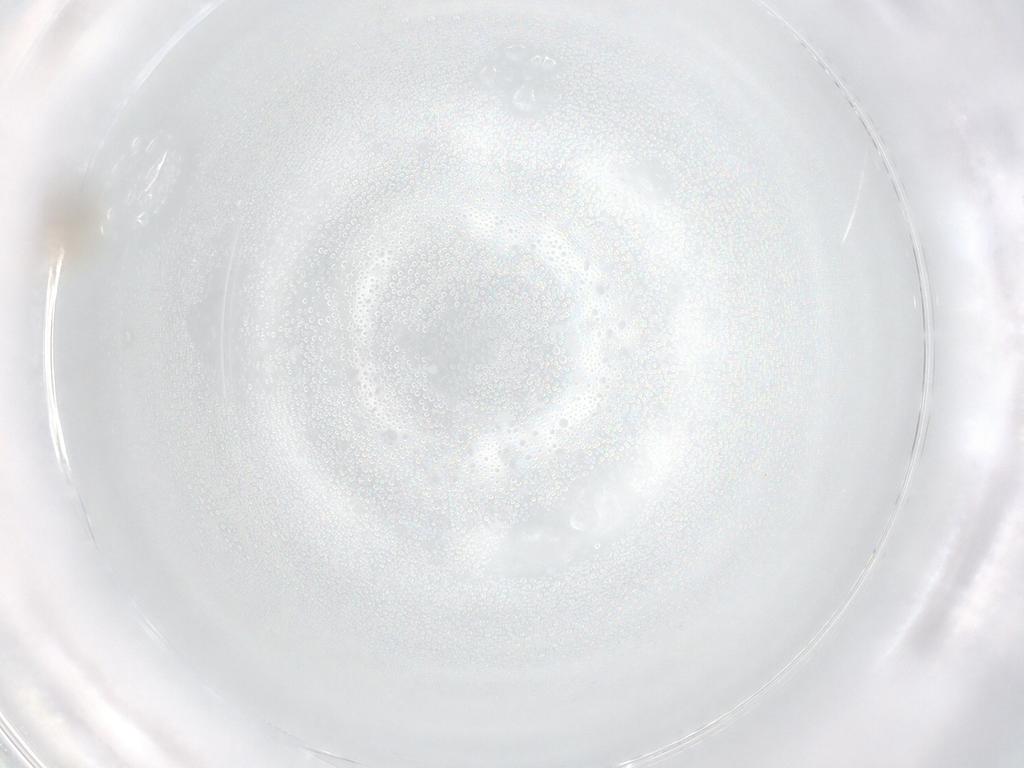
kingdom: Animalia
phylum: Arthropoda
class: Insecta
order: Diptera
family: Cecidomyiidae
